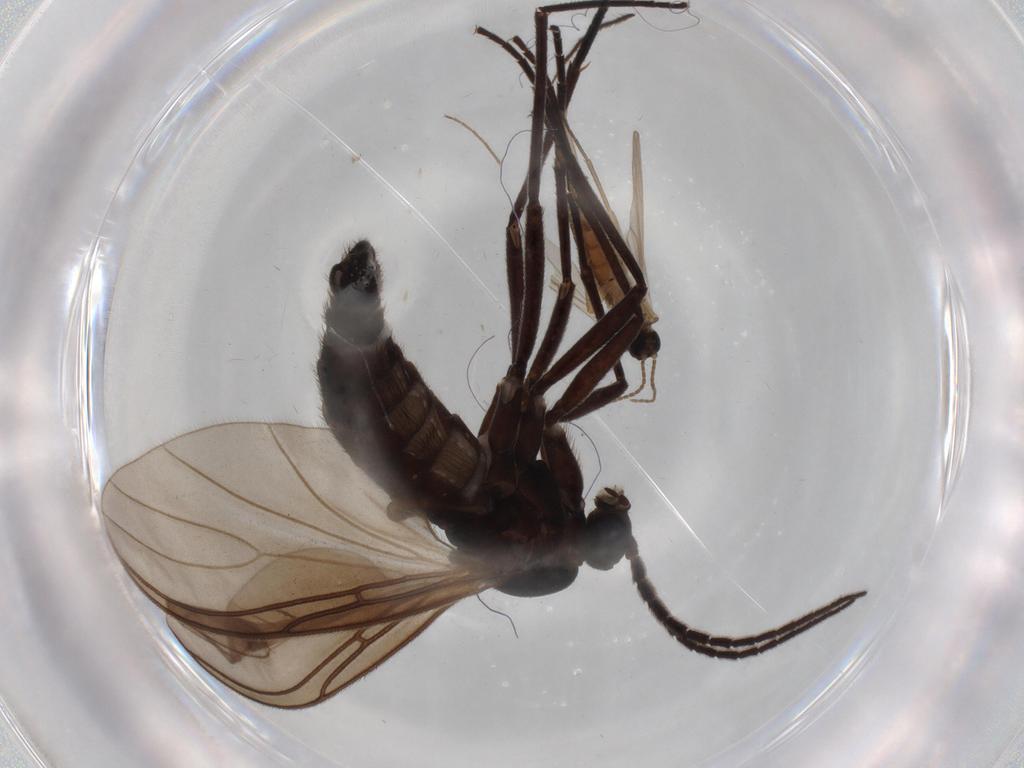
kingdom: Animalia
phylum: Arthropoda
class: Insecta
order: Diptera
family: Sciaridae
